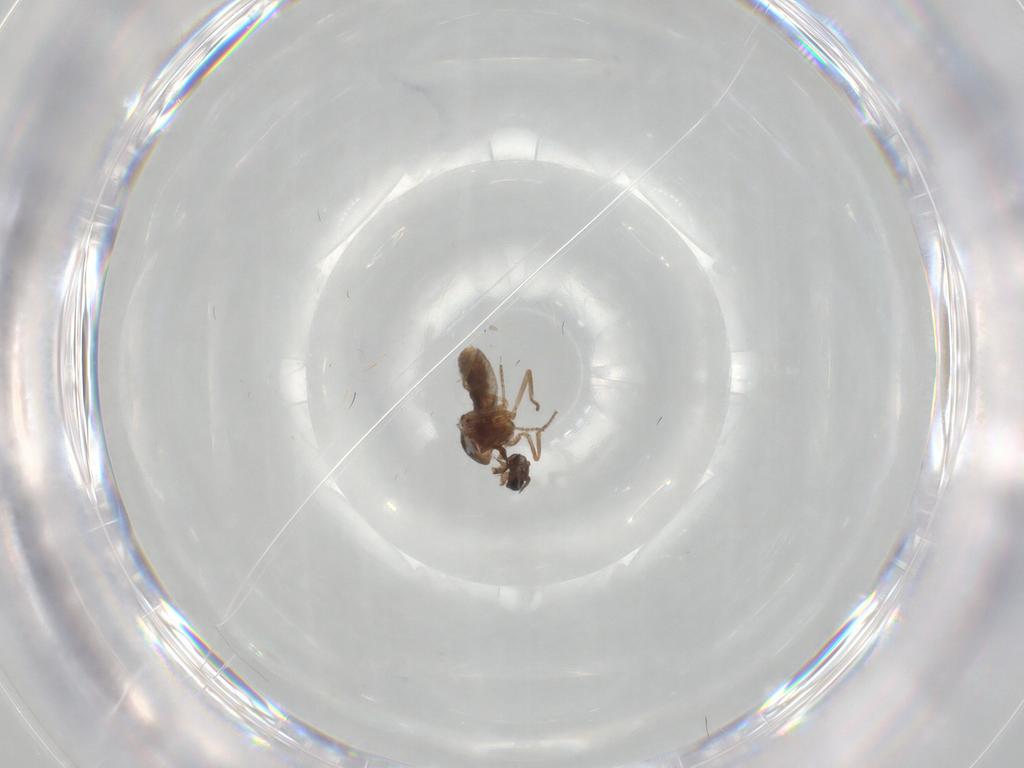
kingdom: Animalia
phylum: Arthropoda
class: Insecta
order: Diptera
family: Phoridae
